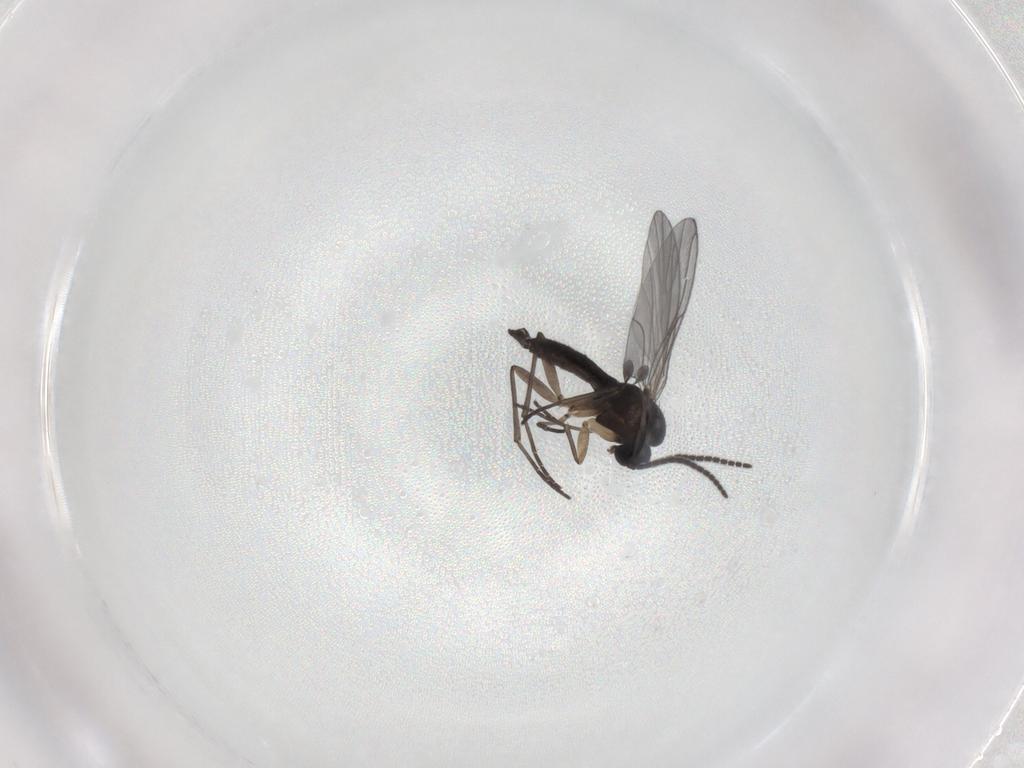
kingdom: Animalia
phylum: Arthropoda
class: Insecta
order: Diptera
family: Sciaridae
